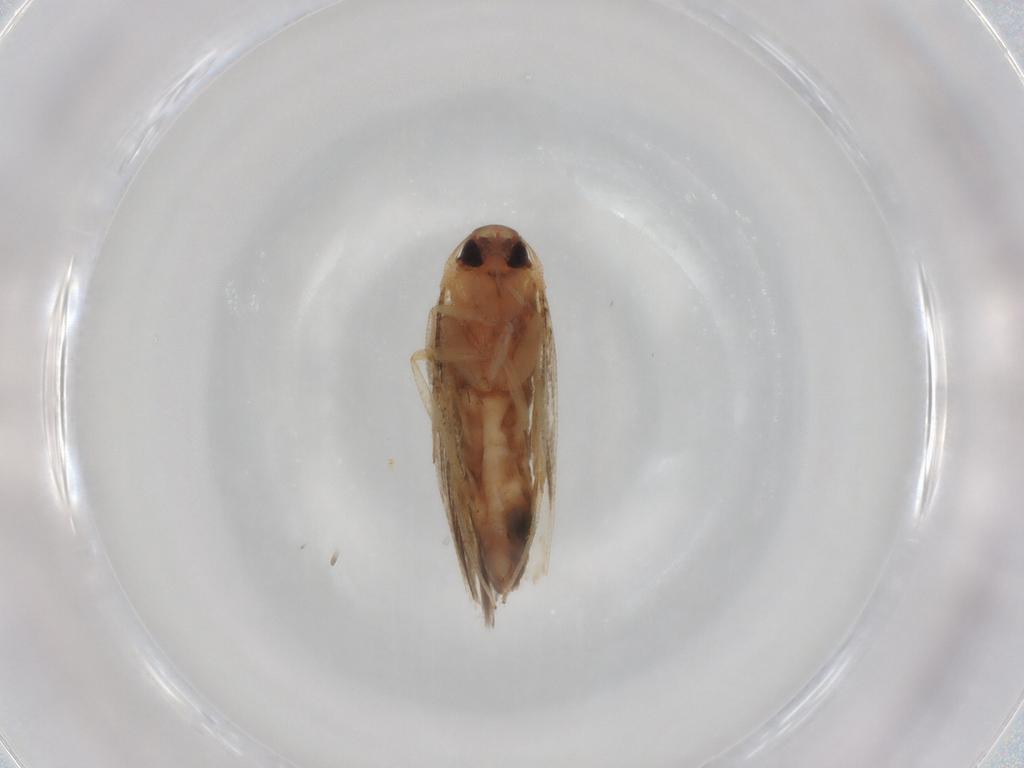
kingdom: Animalia
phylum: Arthropoda
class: Insecta
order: Lepidoptera
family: Cosmopterigidae
